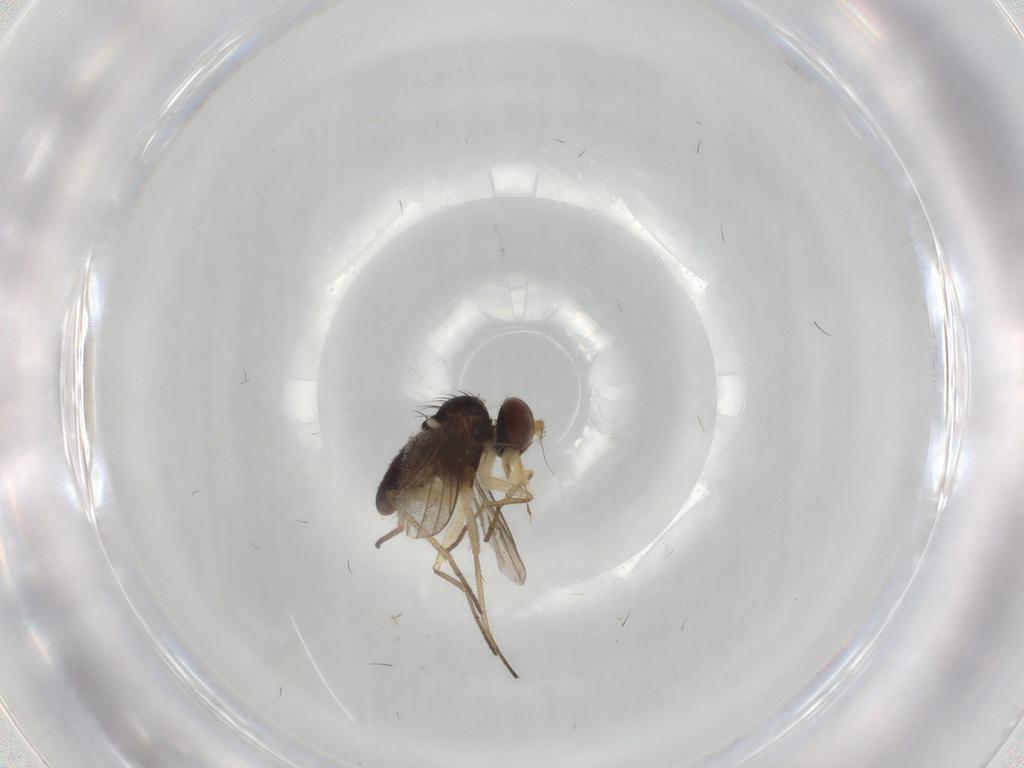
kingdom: Animalia
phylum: Arthropoda
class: Insecta
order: Diptera
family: Dolichopodidae
